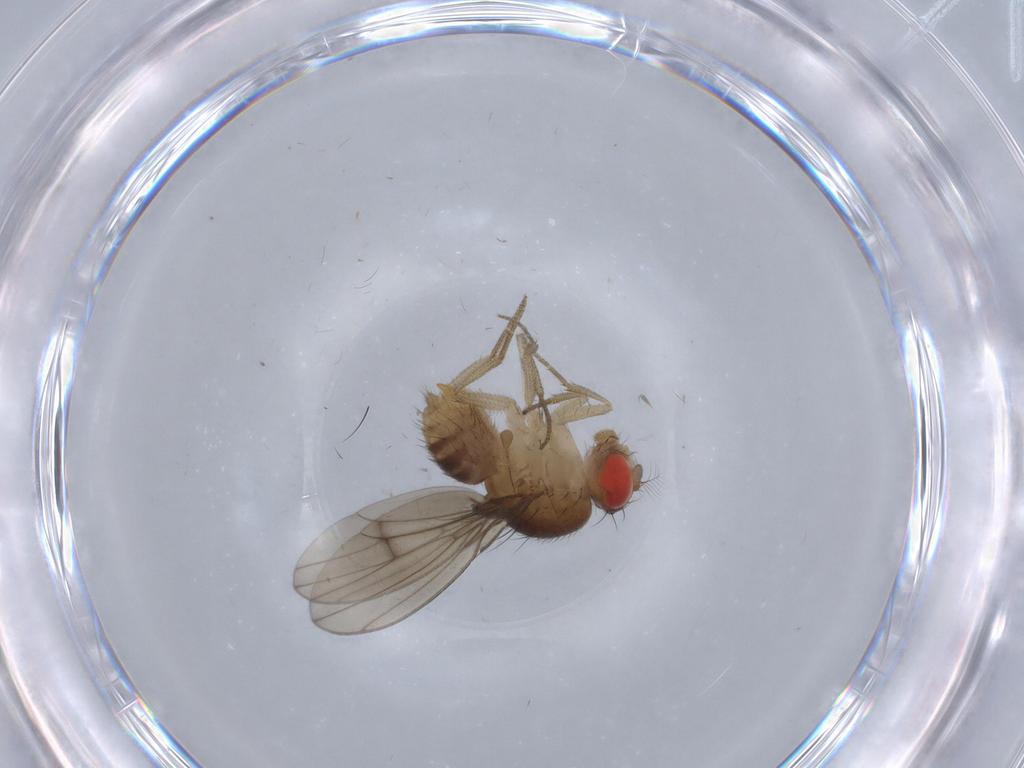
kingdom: Animalia
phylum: Arthropoda
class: Insecta
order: Diptera
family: Drosophilidae
